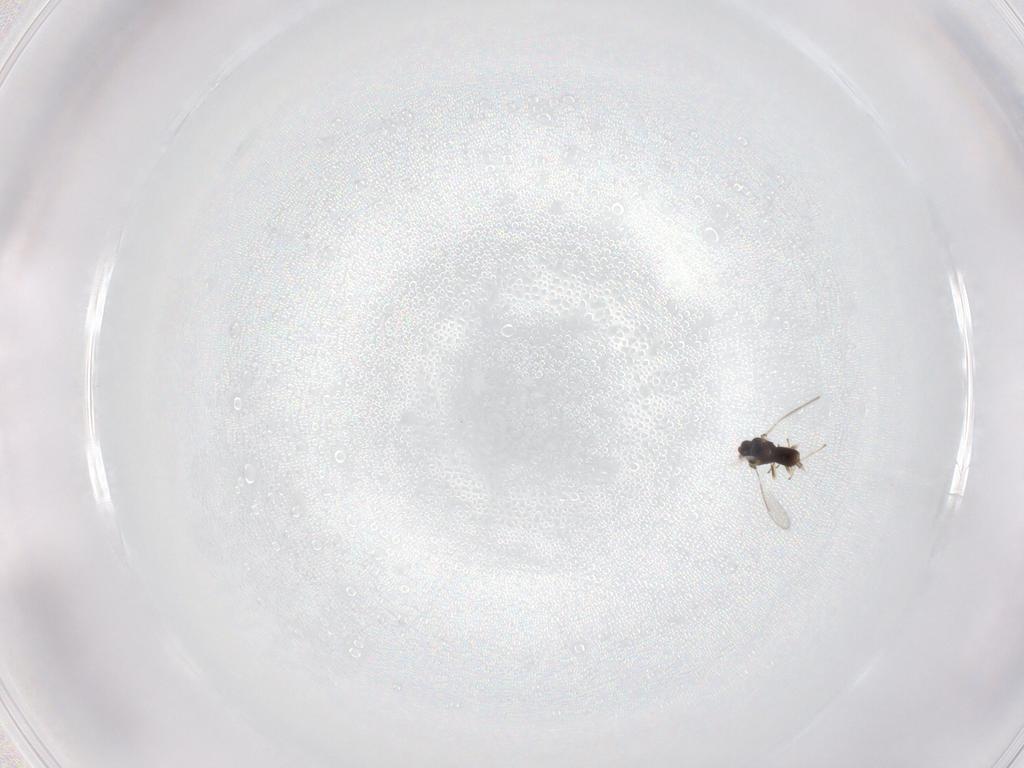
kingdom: Animalia
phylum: Arthropoda
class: Insecta
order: Hymenoptera
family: Eulophidae
